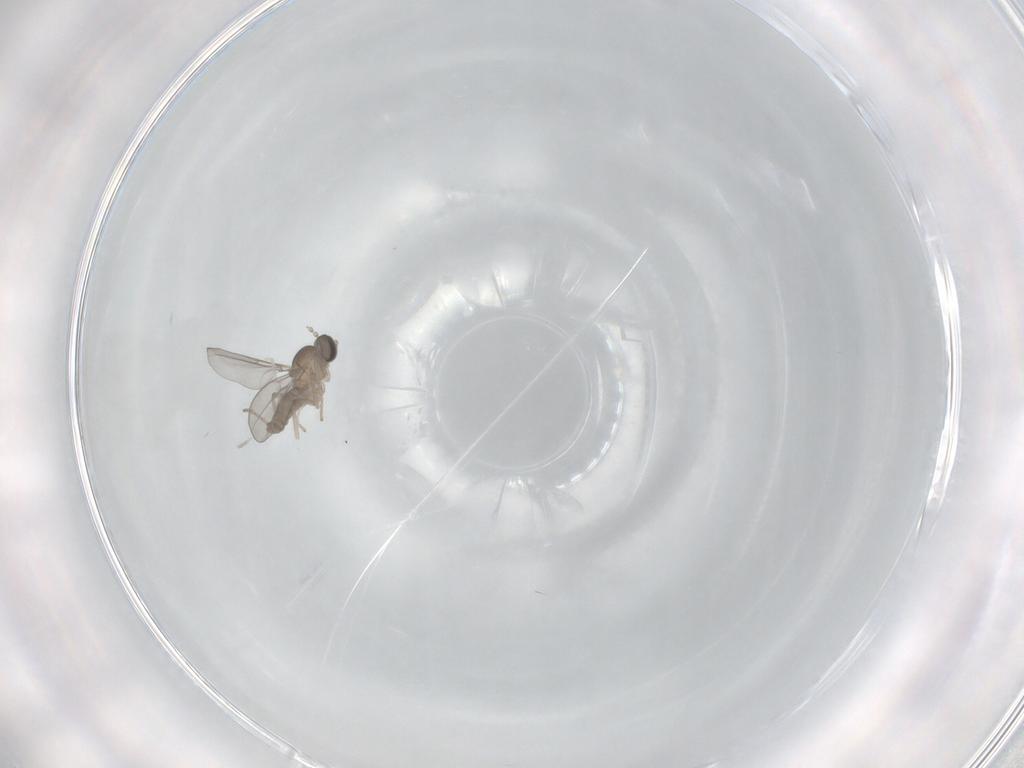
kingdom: Animalia
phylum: Arthropoda
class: Insecta
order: Diptera
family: Cecidomyiidae
